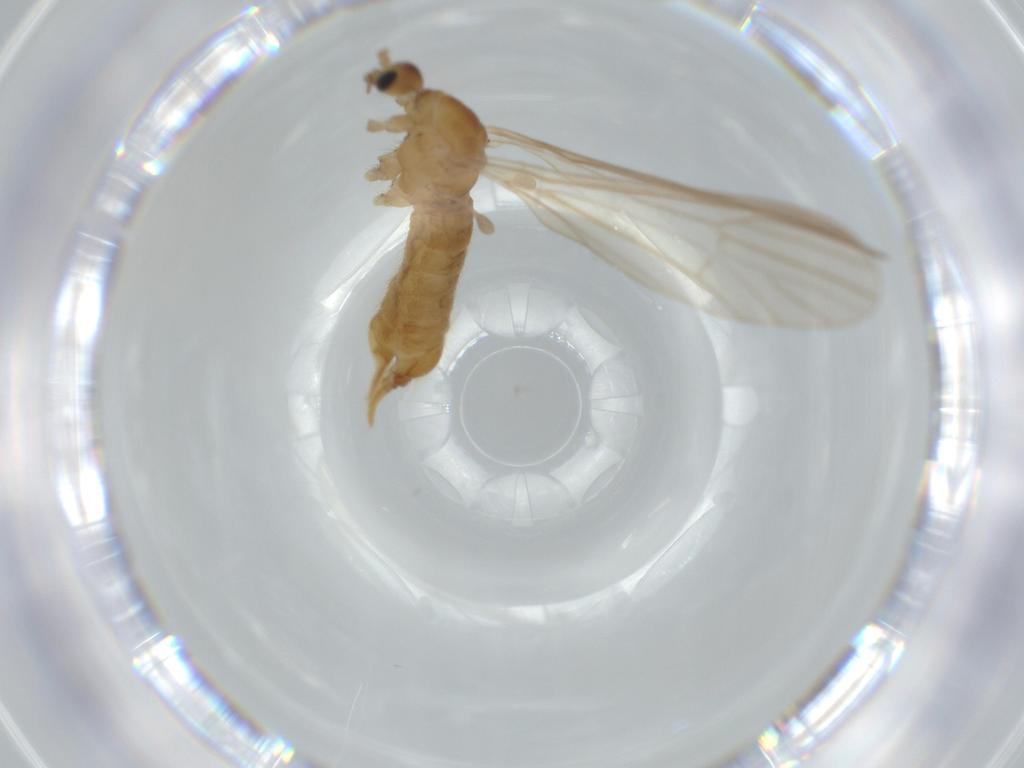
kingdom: Animalia
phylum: Arthropoda
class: Insecta
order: Diptera
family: Limoniidae
